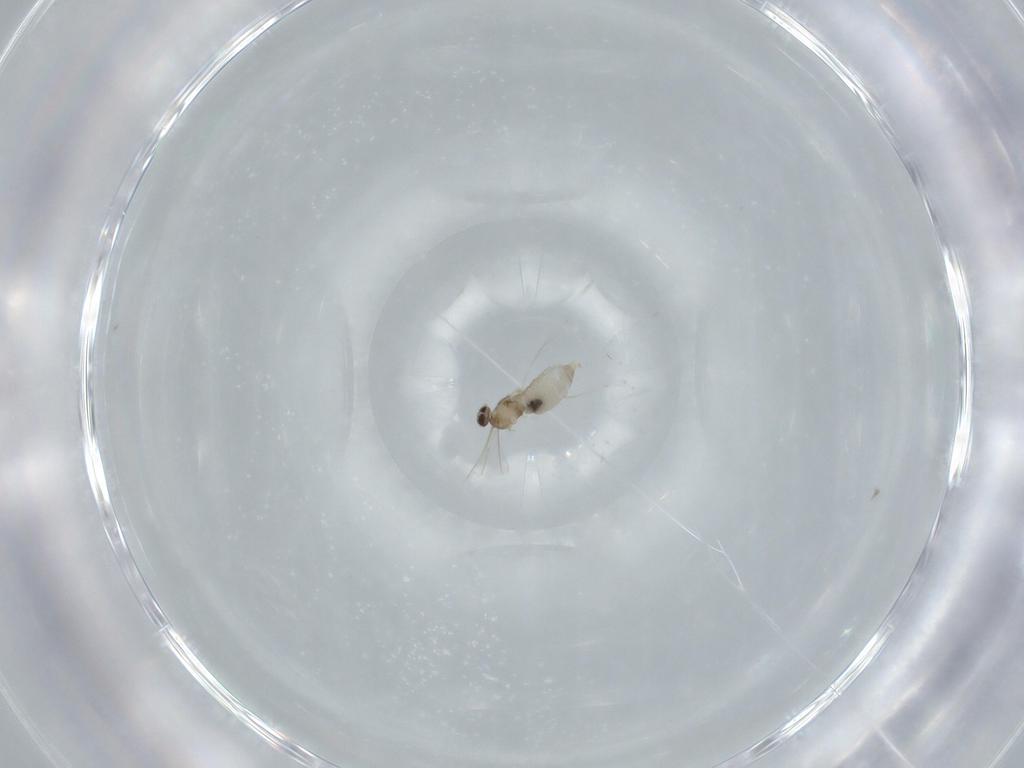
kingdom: Animalia
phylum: Arthropoda
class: Insecta
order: Diptera
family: Cecidomyiidae
